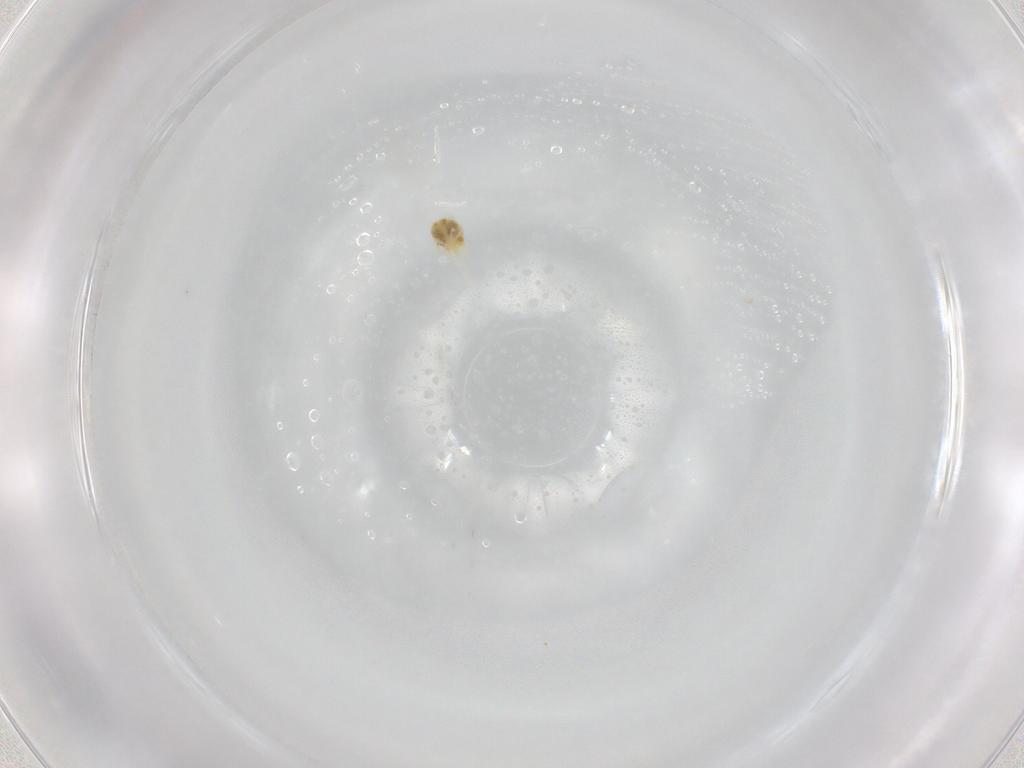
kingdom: Animalia
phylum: Arthropoda
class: Arachnida
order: Trombidiformes
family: Tetranychidae
